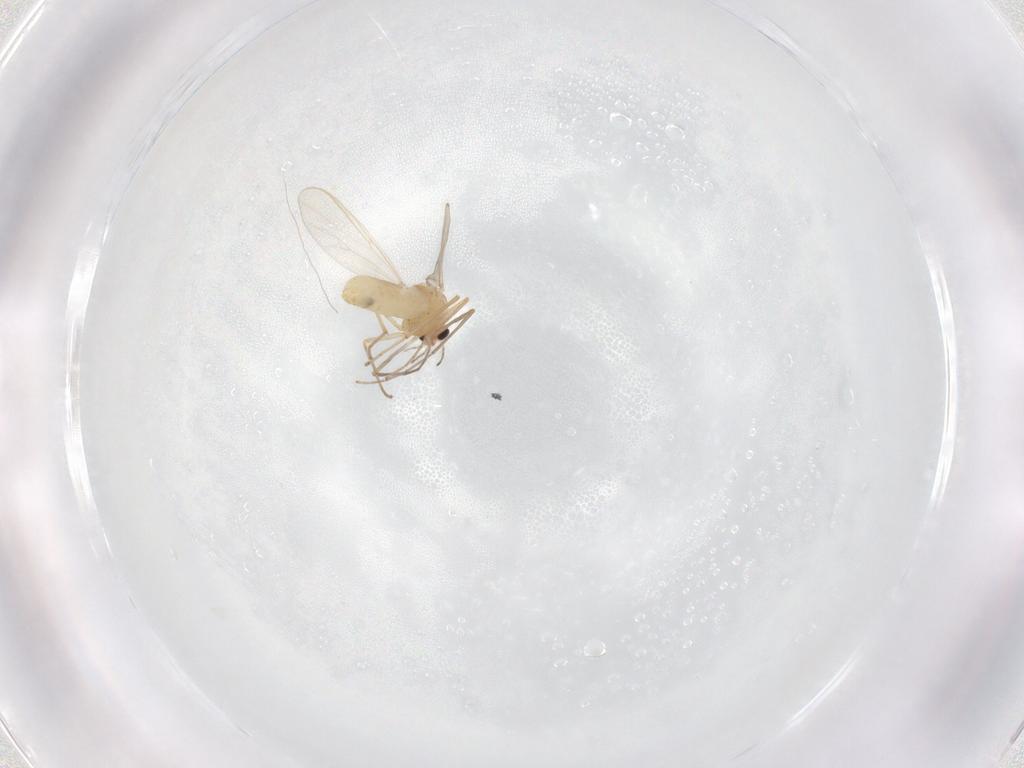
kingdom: Animalia
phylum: Arthropoda
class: Insecta
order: Diptera
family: Chironomidae
